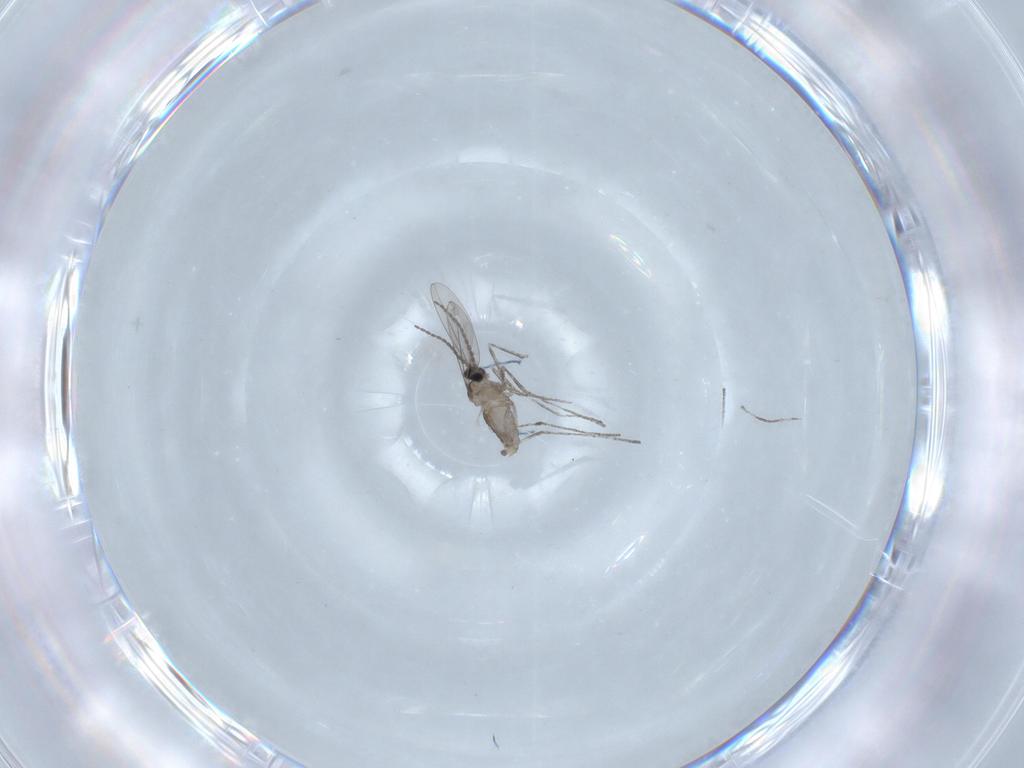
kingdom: Animalia
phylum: Arthropoda
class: Insecta
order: Diptera
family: Cecidomyiidae
